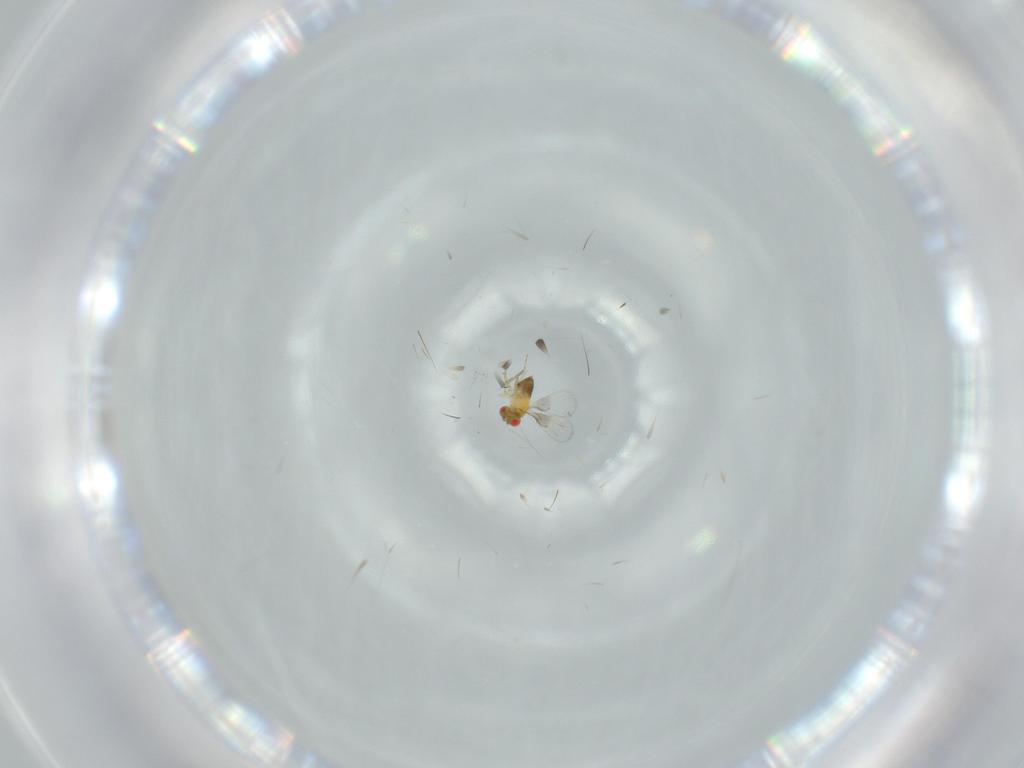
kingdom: Animalia
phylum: Arthropoda
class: Insecta
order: Hymenoptera
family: Trichogrammatidae
